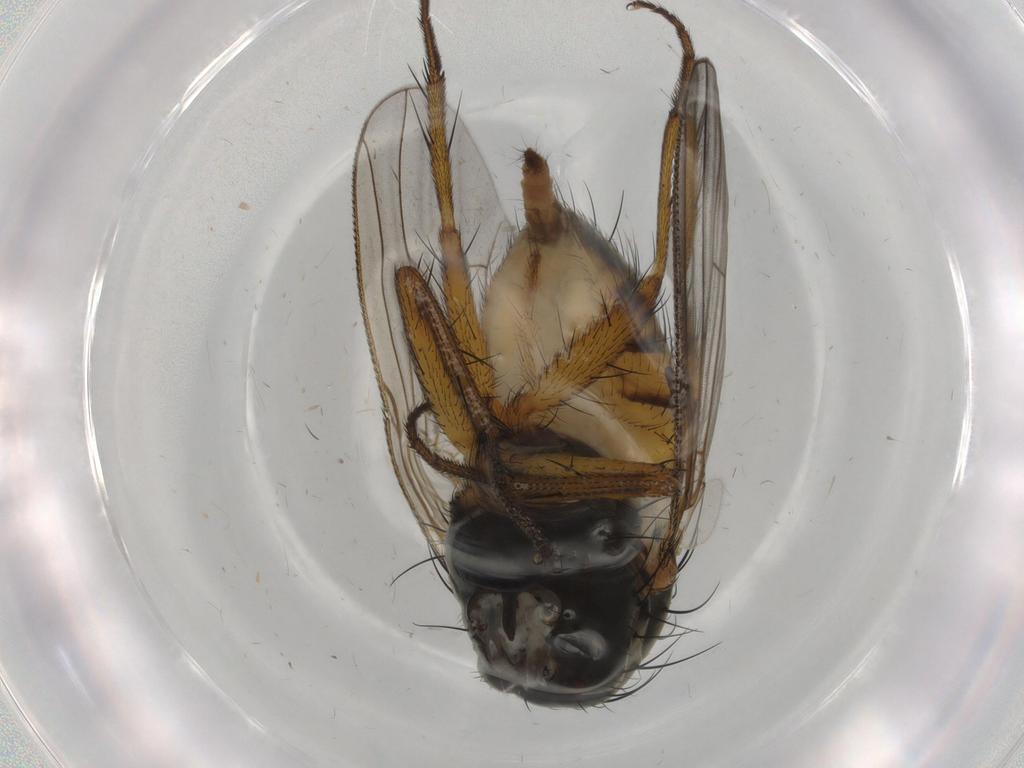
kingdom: Animalia
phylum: Arthropoda
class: Insecta
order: Diptera
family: Muscidae
